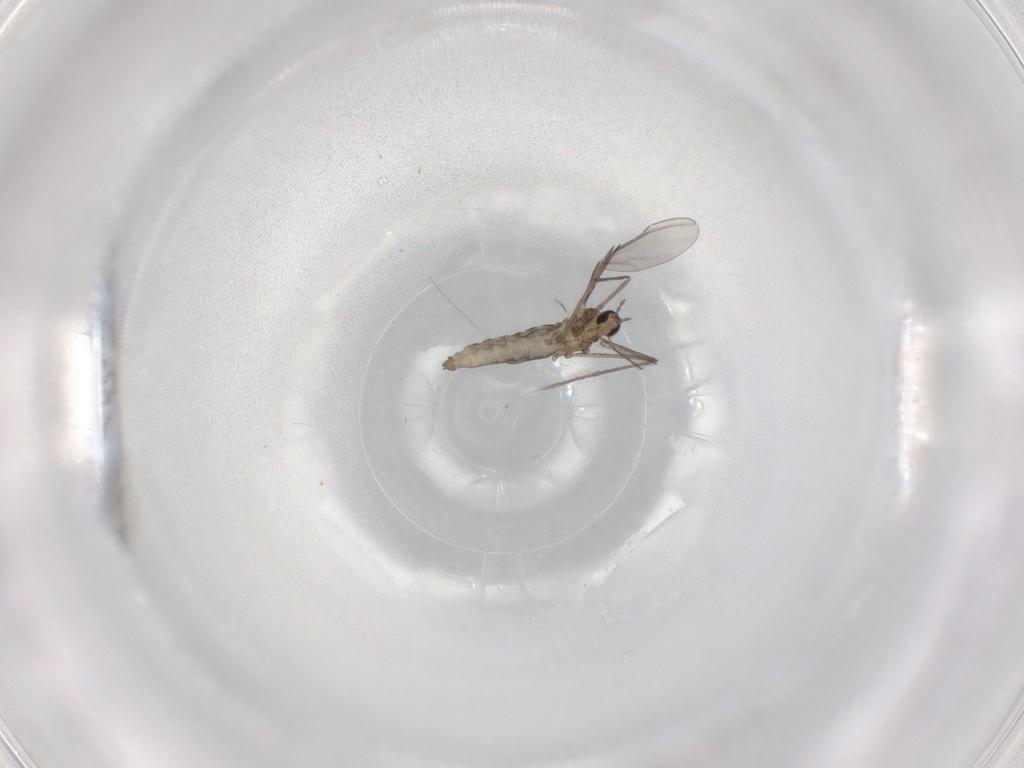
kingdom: Animalia
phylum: Arthropoda
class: Insecta
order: Diptera
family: Cecidomyiidae
